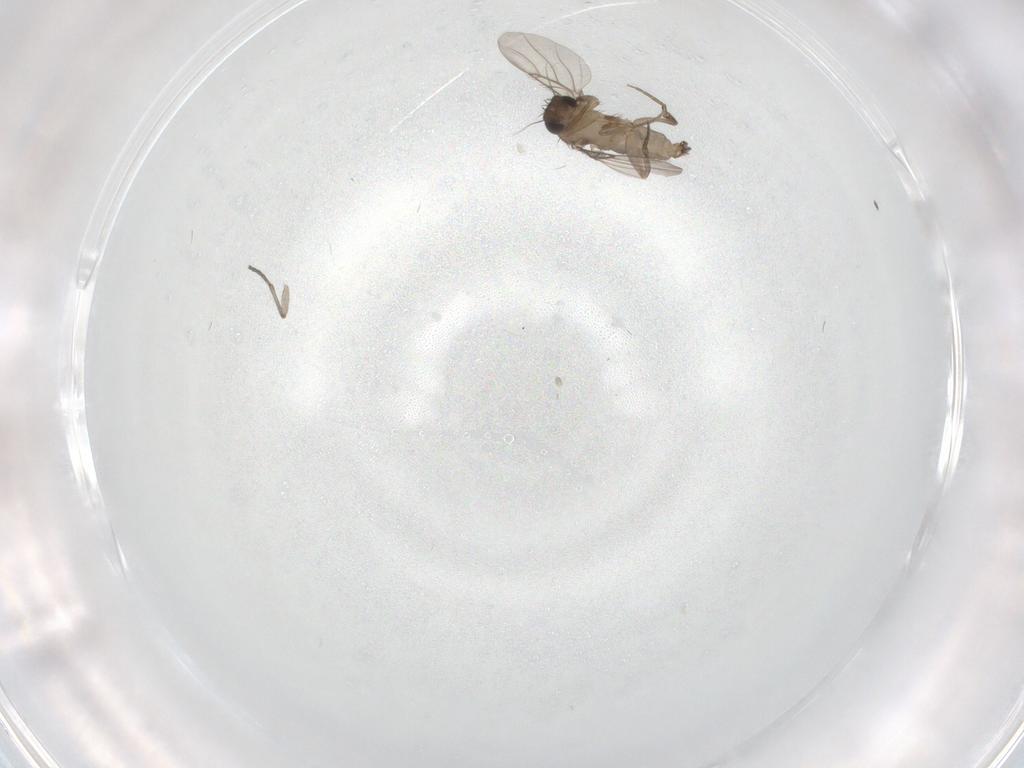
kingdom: Animalia
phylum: Arthropoda
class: Insecta
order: Diptera
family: Phoridae
